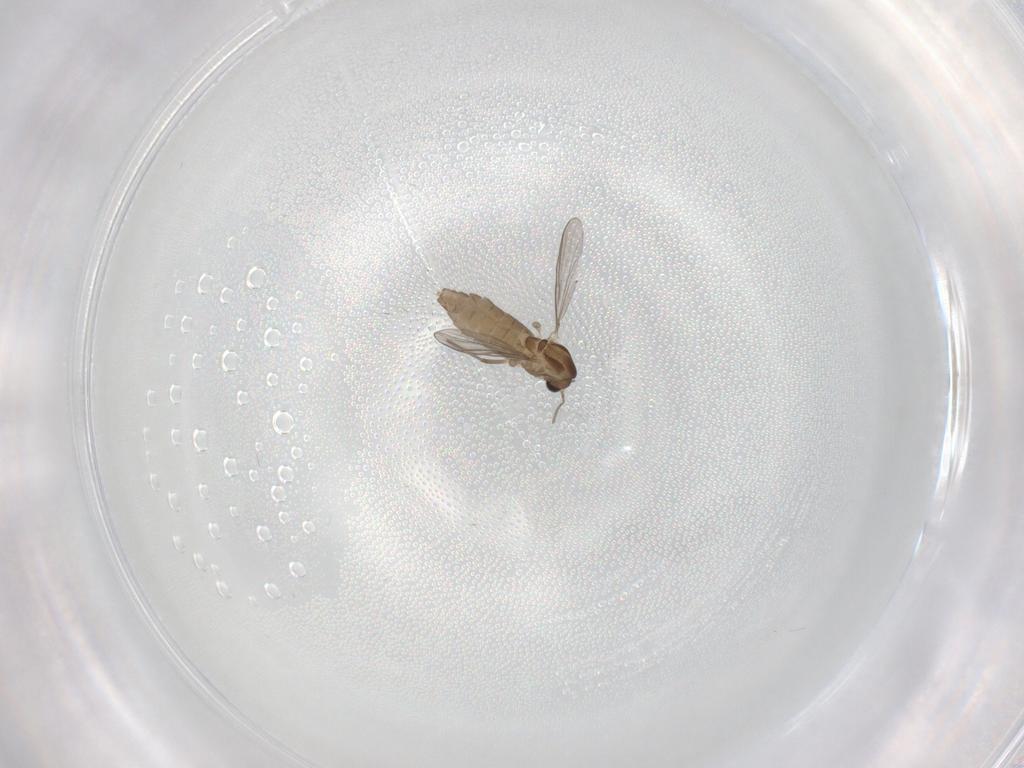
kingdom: Animalia
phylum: Arthropoda
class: Insecta
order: Diptera
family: Chironomidae
